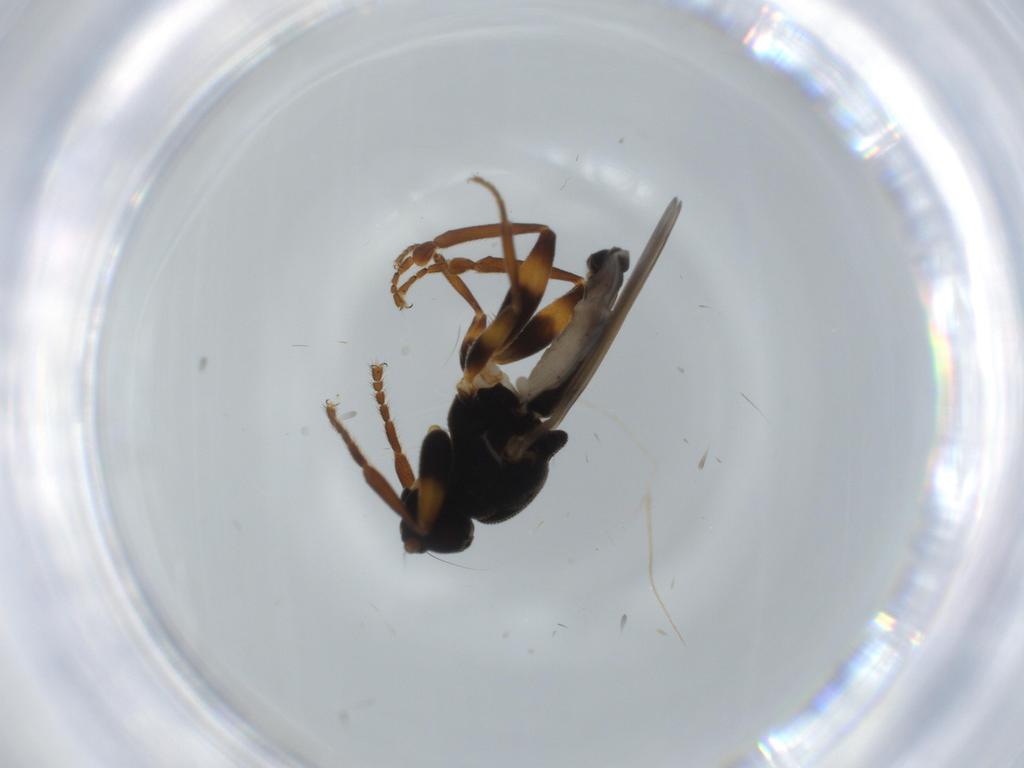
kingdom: Animalia
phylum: Arthropoda
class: Insecta
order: Diptera
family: Sphaeroceridae
